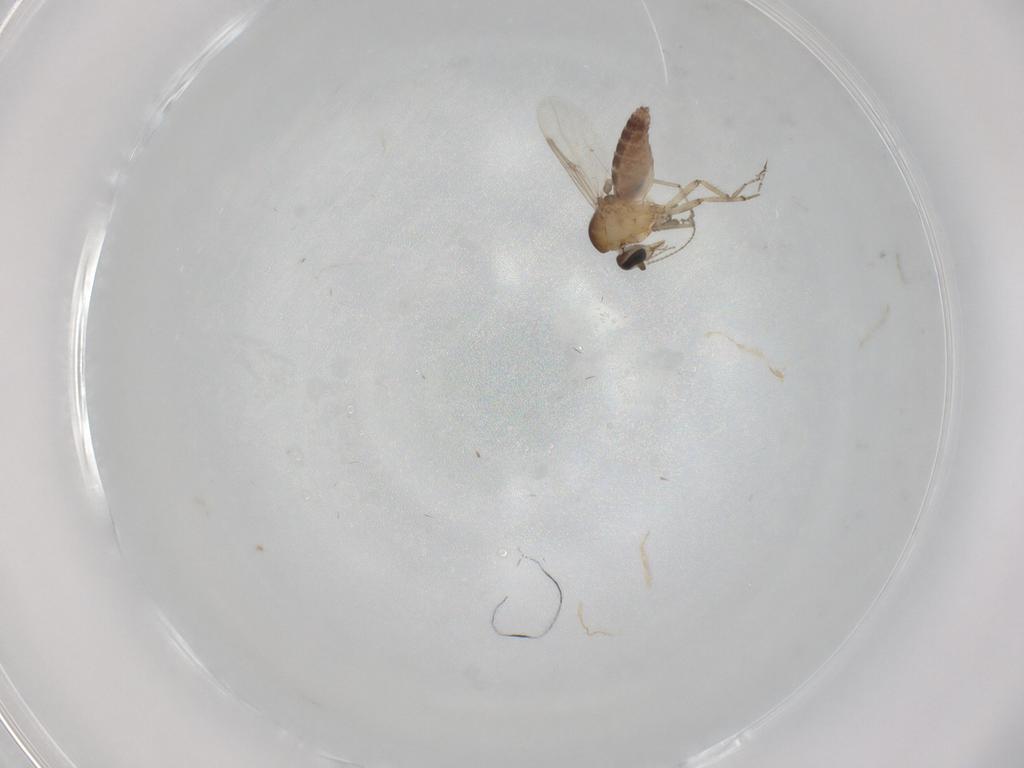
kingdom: Animalia
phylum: Arthropoda
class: Insecta
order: Diptera
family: Ceratopogonidae
